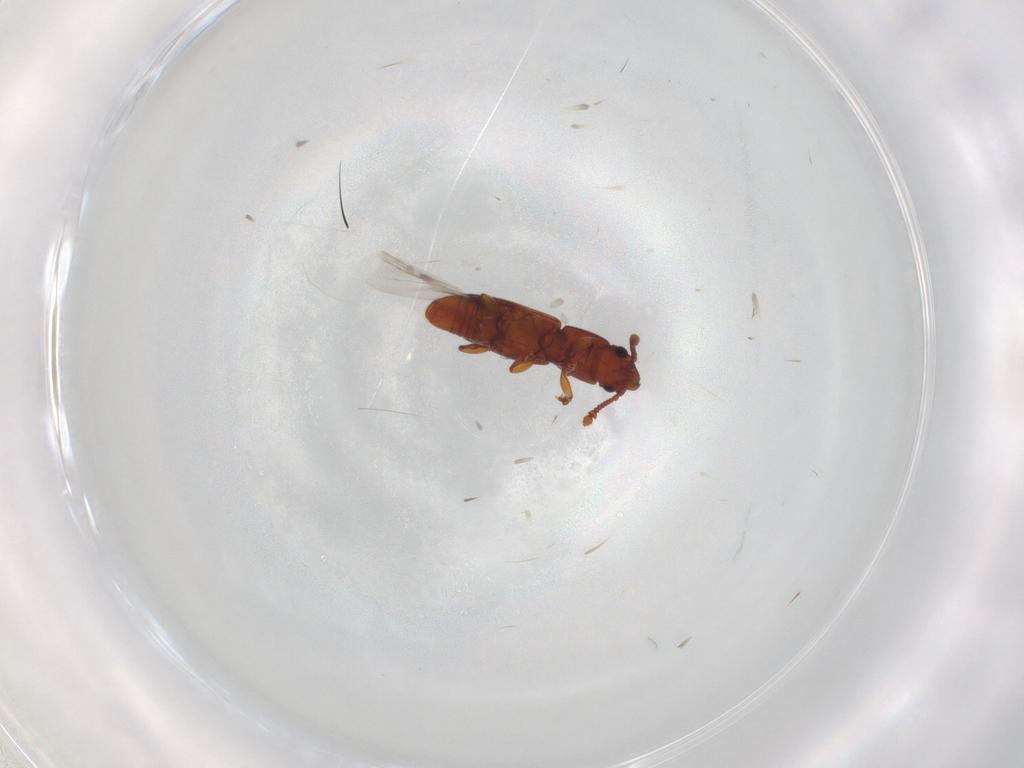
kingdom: Animalia
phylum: Arthropoda
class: Insecta
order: Coleoptera
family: Monotomidae
